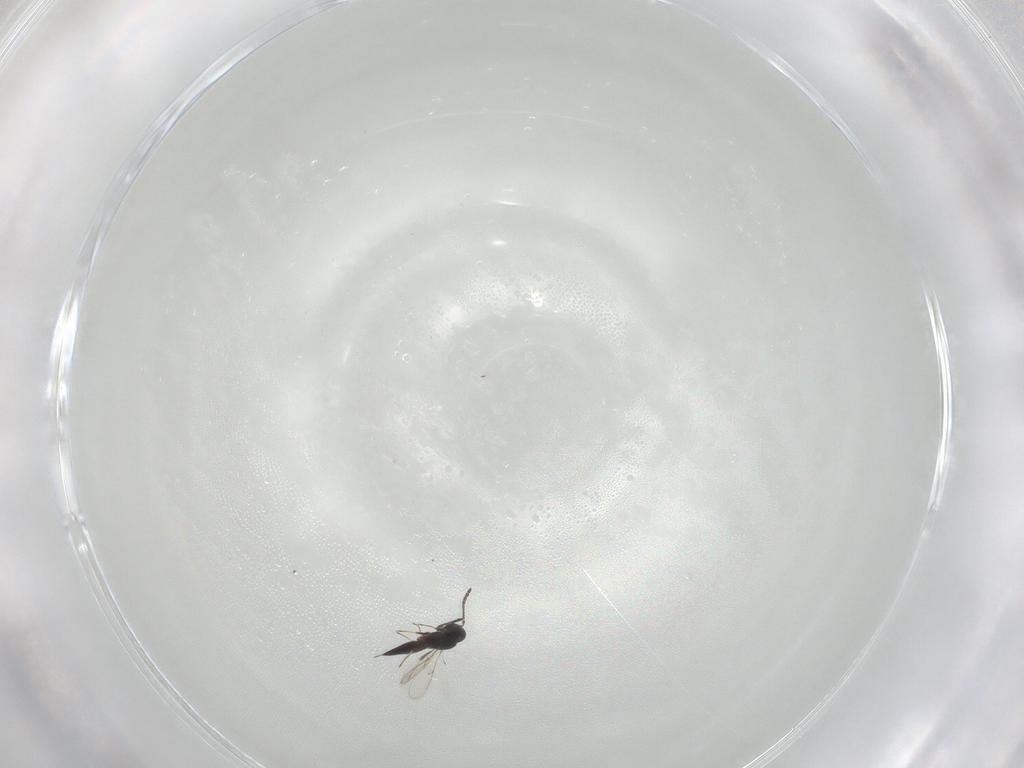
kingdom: Animalia
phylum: Arthropoda
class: Insecta
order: Hymenoptera
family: Scelionidae
